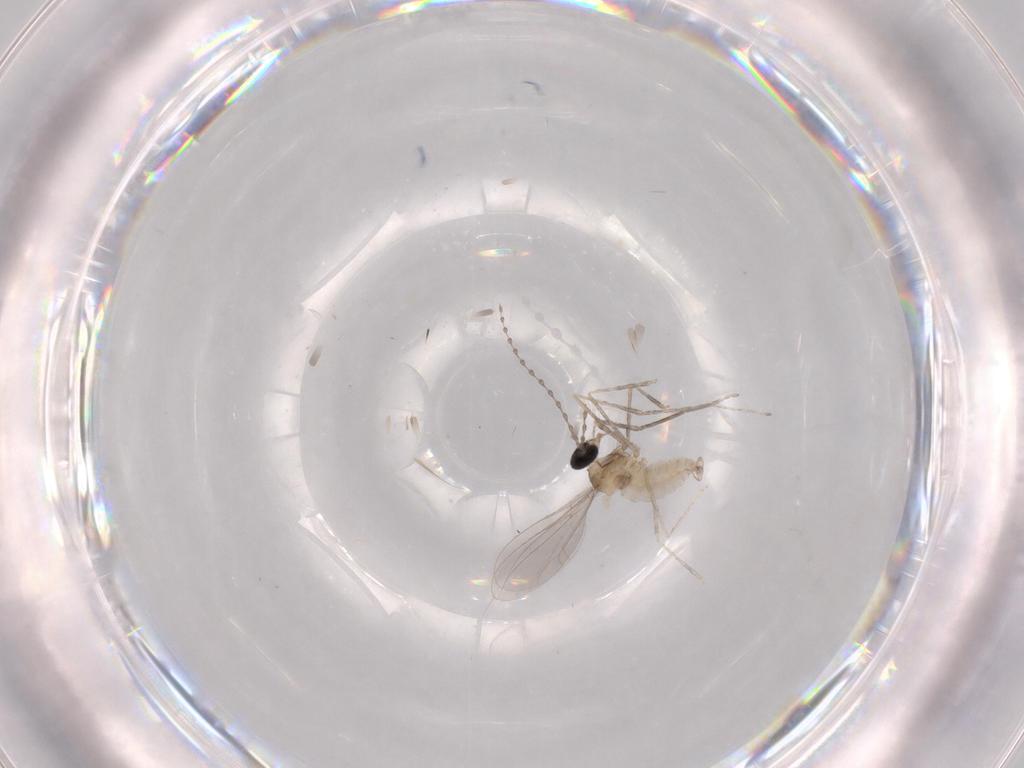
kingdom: Animalia
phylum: Arthropoda
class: Insecta
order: Diptera
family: Cecidomyiidae
